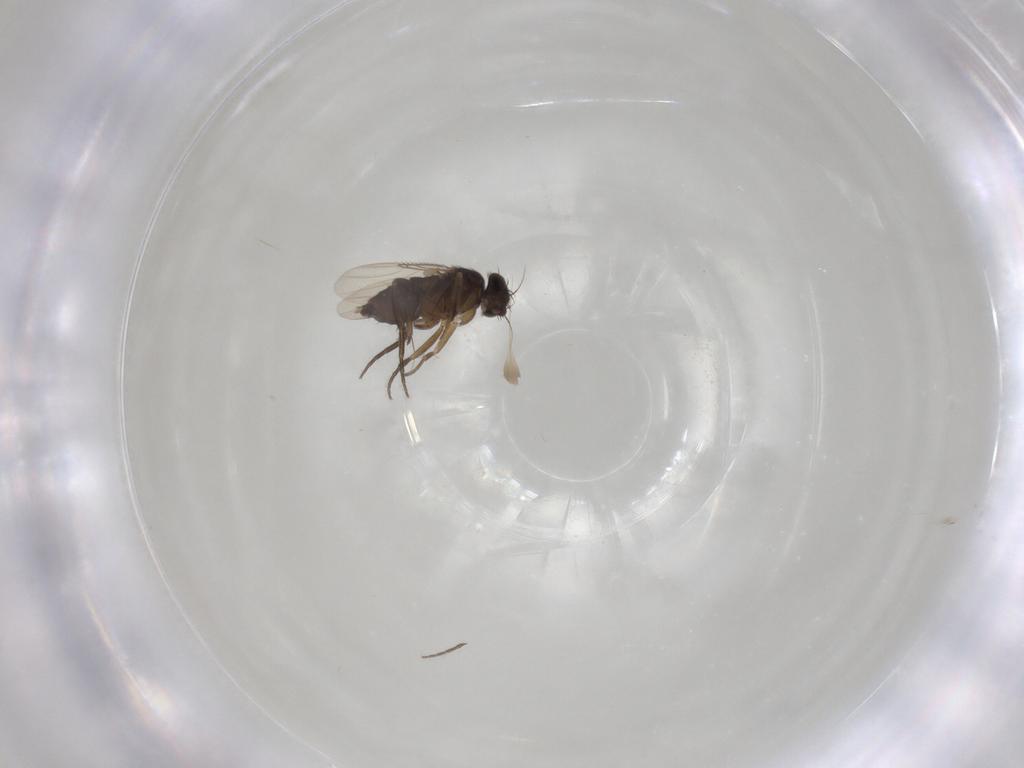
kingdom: Animalia
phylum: Arthropoda
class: Insecta
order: Diptera
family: Phoridae
